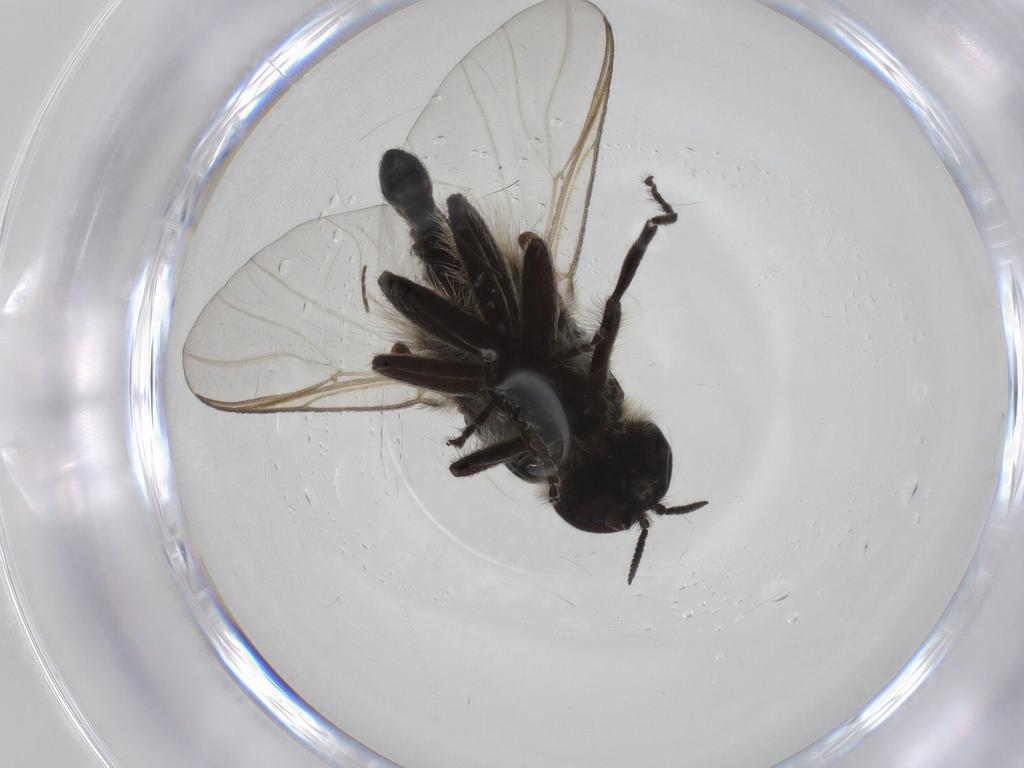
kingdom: Animalia
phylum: Arthropoda
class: Insecta
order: Diptera
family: Simuliidae
